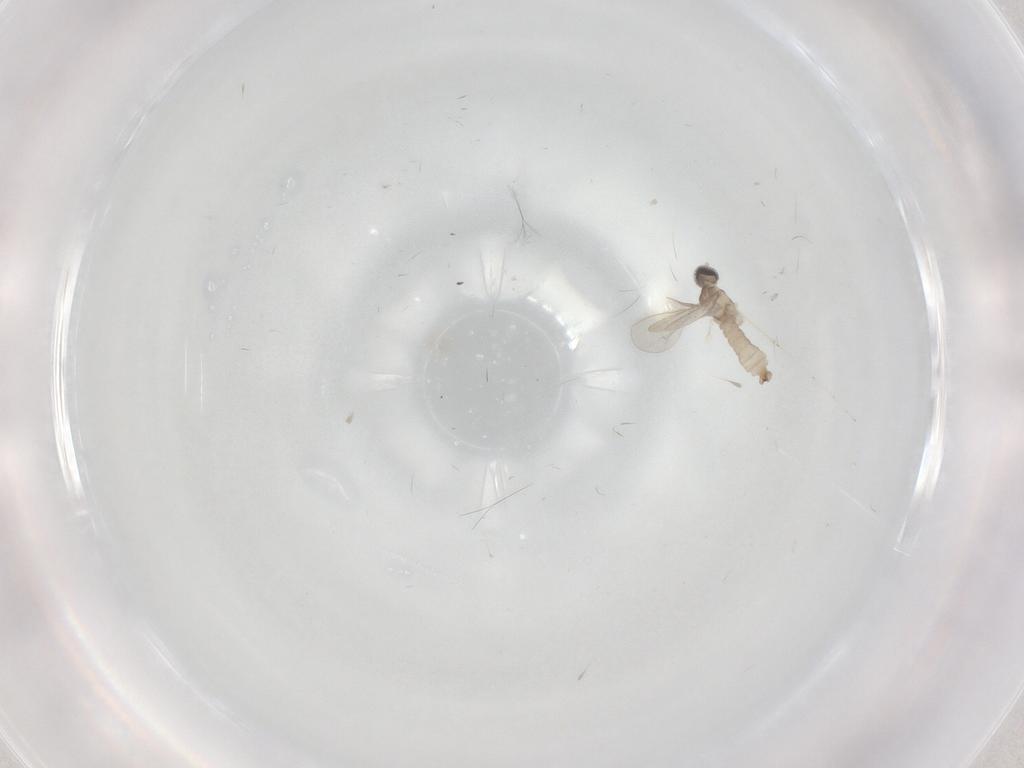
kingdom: Animalia
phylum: Arthropoda
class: Insecta
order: Diptera
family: Cecidomyiidae
